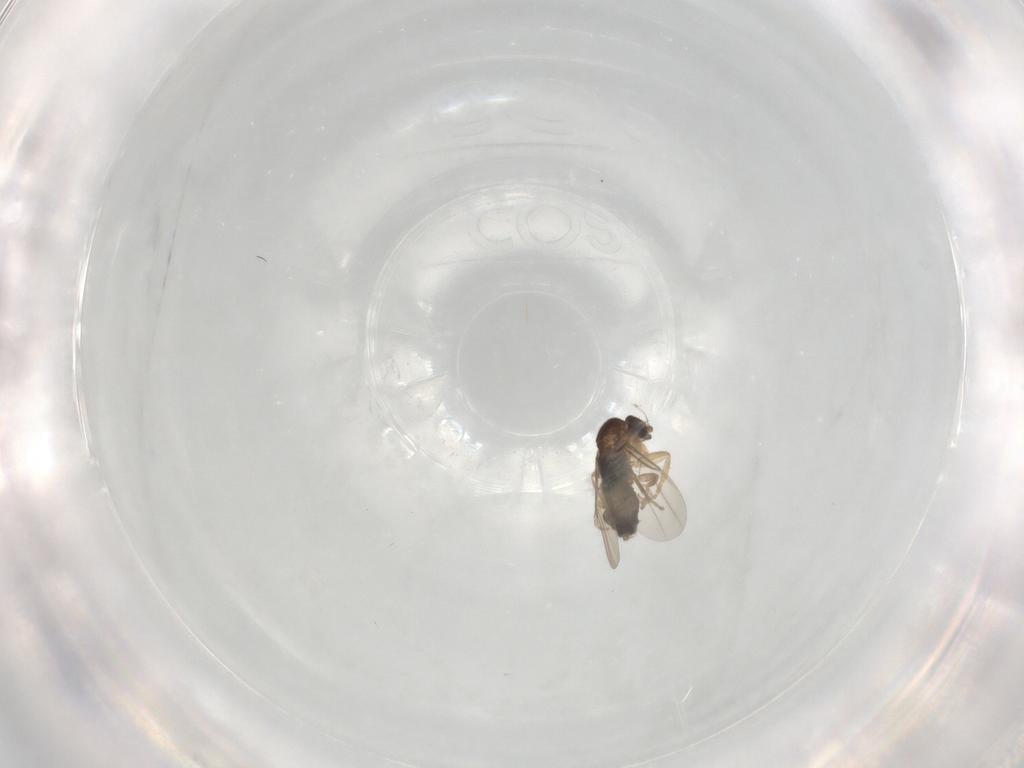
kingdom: Animalia
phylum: Arthropoda
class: Insecta
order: Diptera
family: Phoridae
